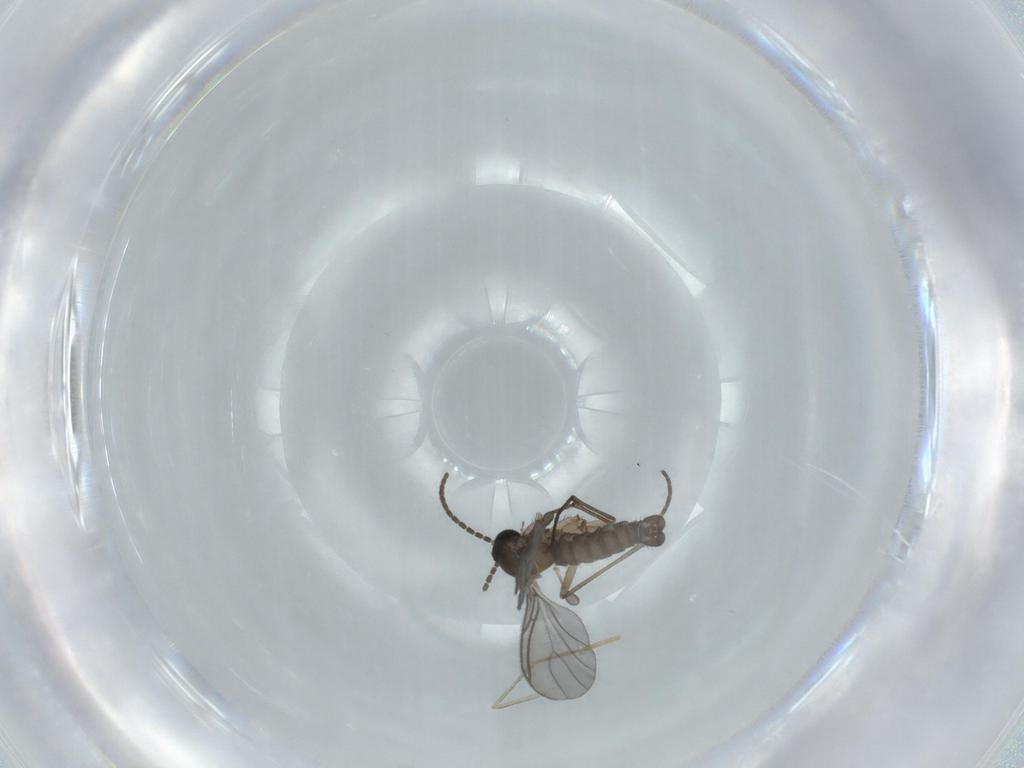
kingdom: Animalia
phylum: Arthropoda
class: Insecta
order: Diptera
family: Sciaridae
